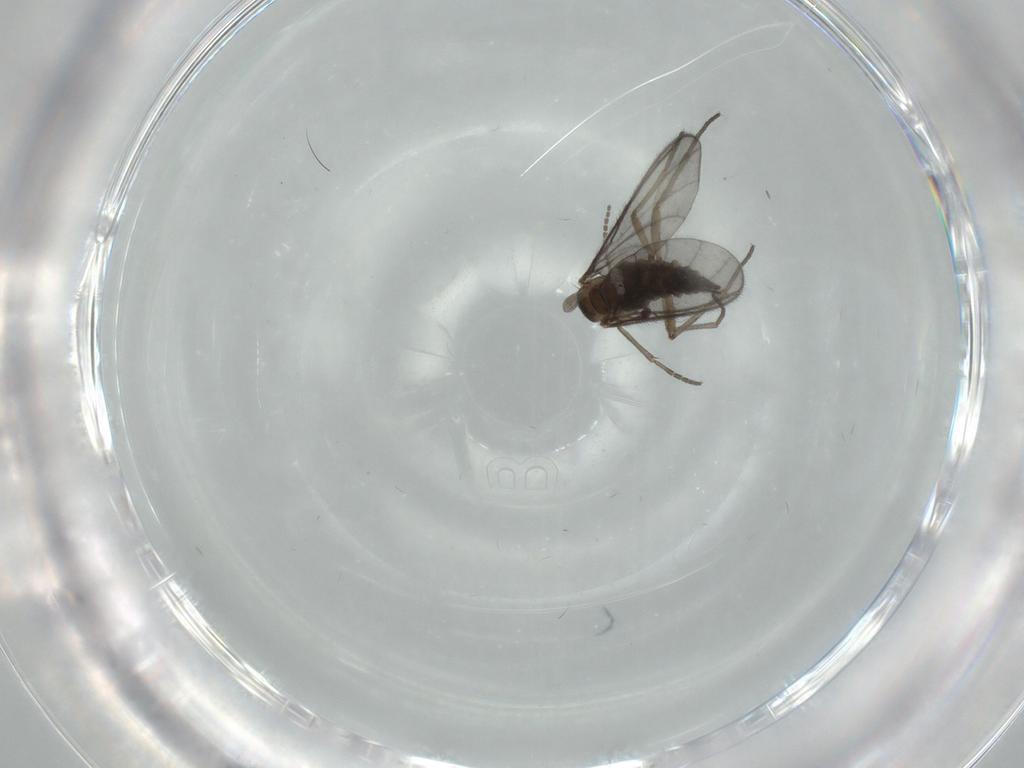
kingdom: Animalia
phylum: Arthropoda
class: Insecta
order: Diptera
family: Sciaridae
